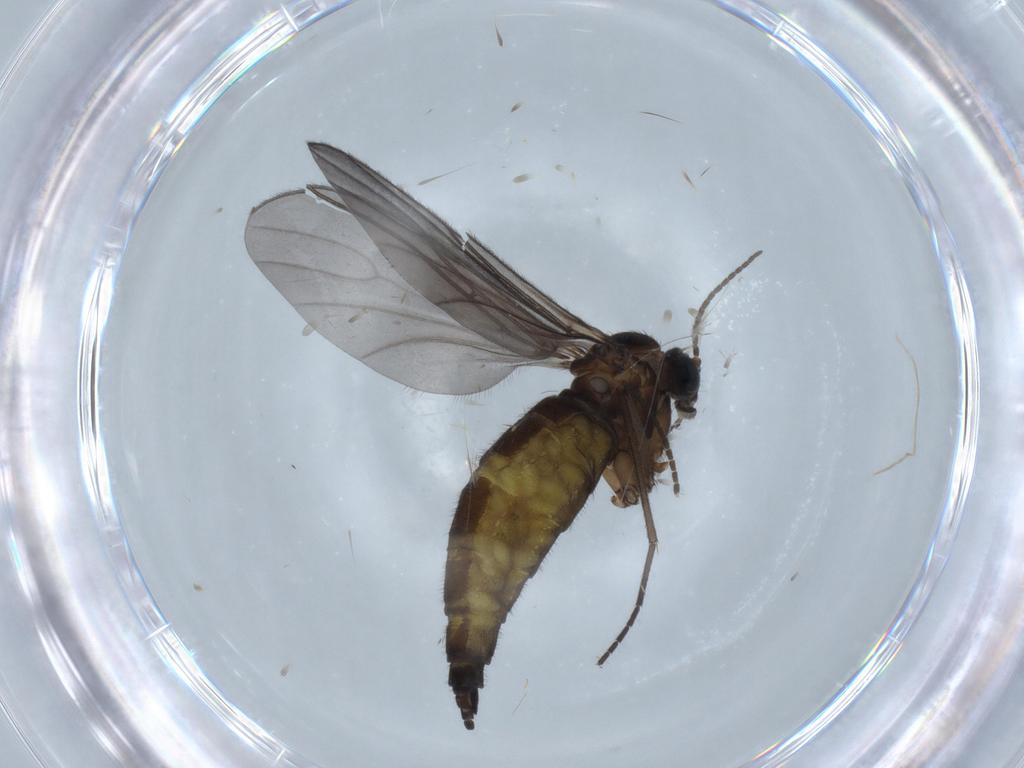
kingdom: Animalia
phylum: Arthropoda
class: Insecta
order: Diptera
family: Sciaridae
